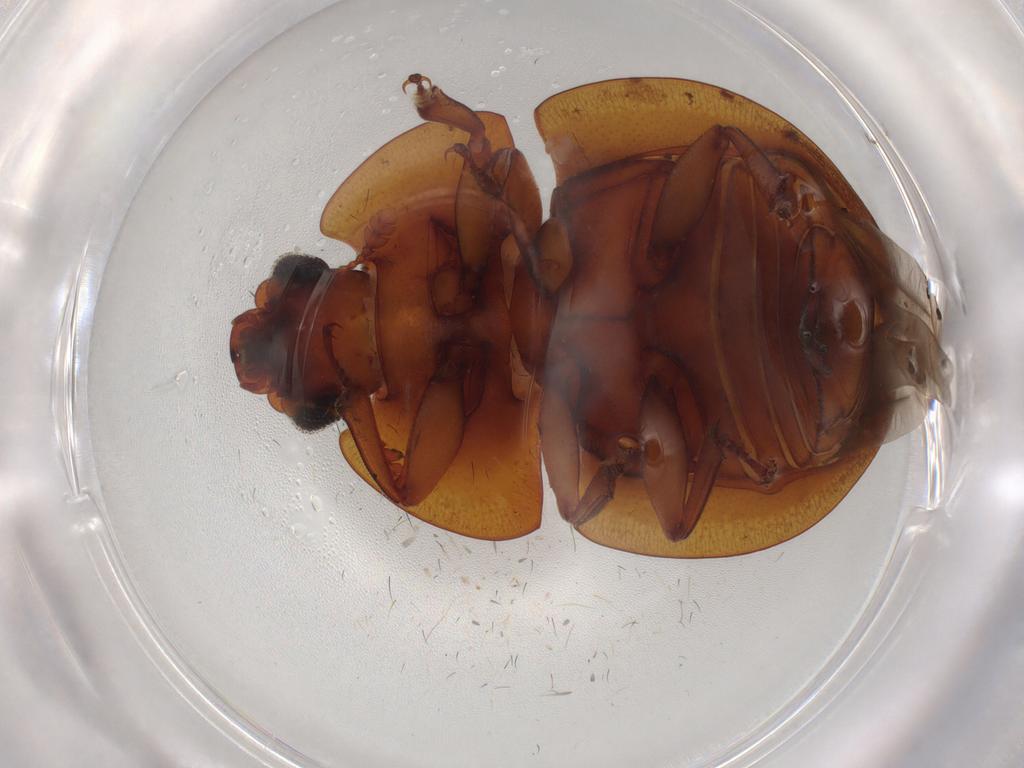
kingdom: Animalia
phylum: Arthropoda
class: Insecta
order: Coleoptera
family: Nitidulidae
